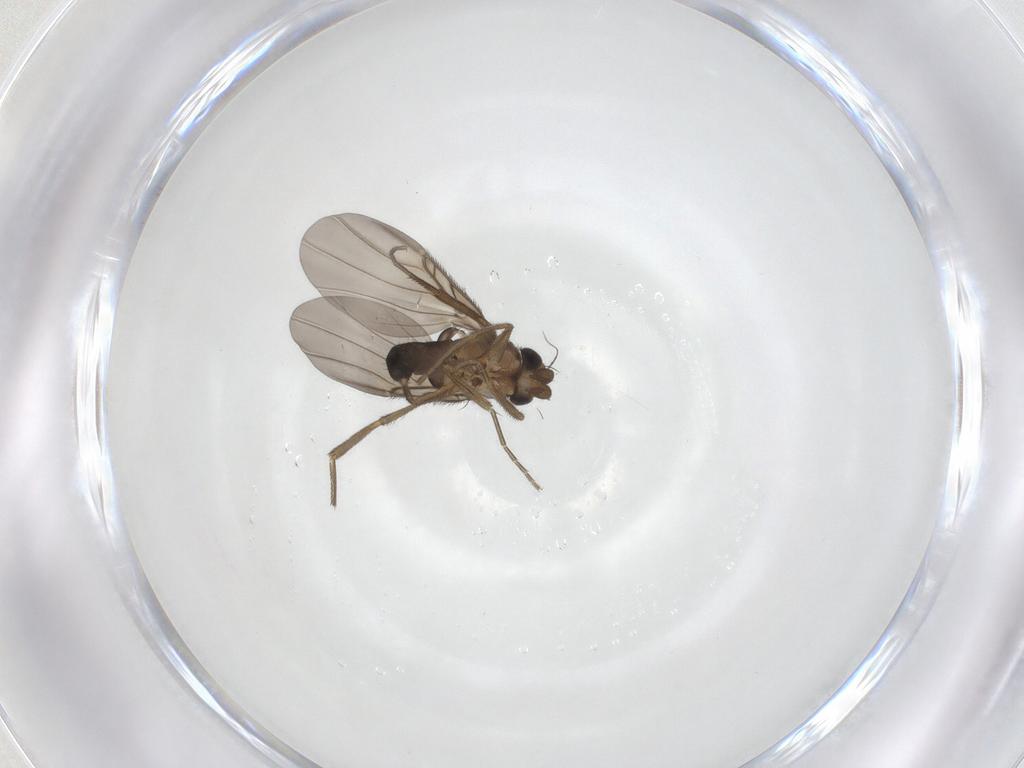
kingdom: Animalia
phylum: Arthropoda
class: Insecta
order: Diptera
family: Phoridae
